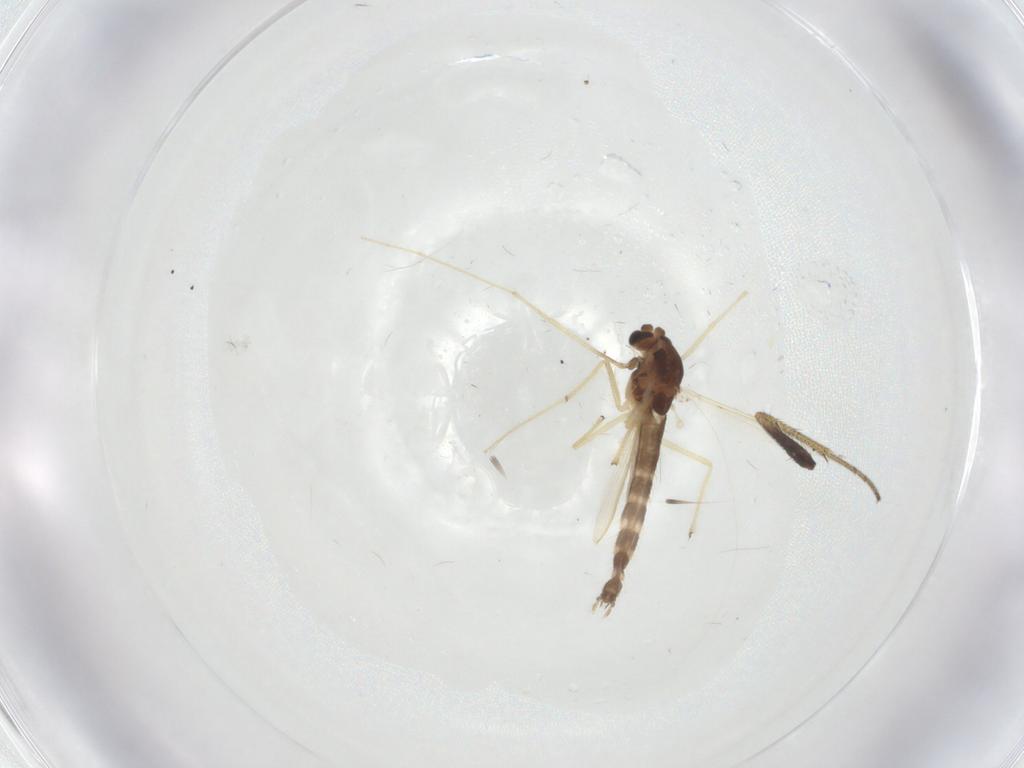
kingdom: Animalia
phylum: Arthropoda
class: Insecta
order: Diptera
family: Chironomidae
